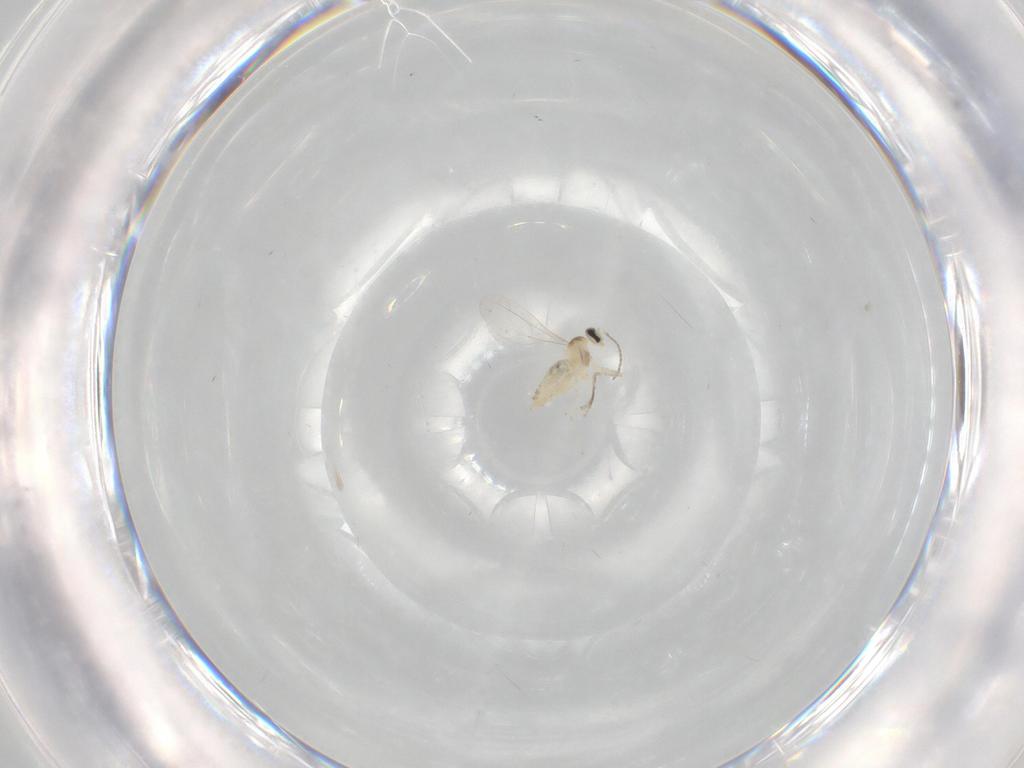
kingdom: Animalia
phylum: Arthropoda
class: Insecta
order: Diptera
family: Cecidomyiidae
